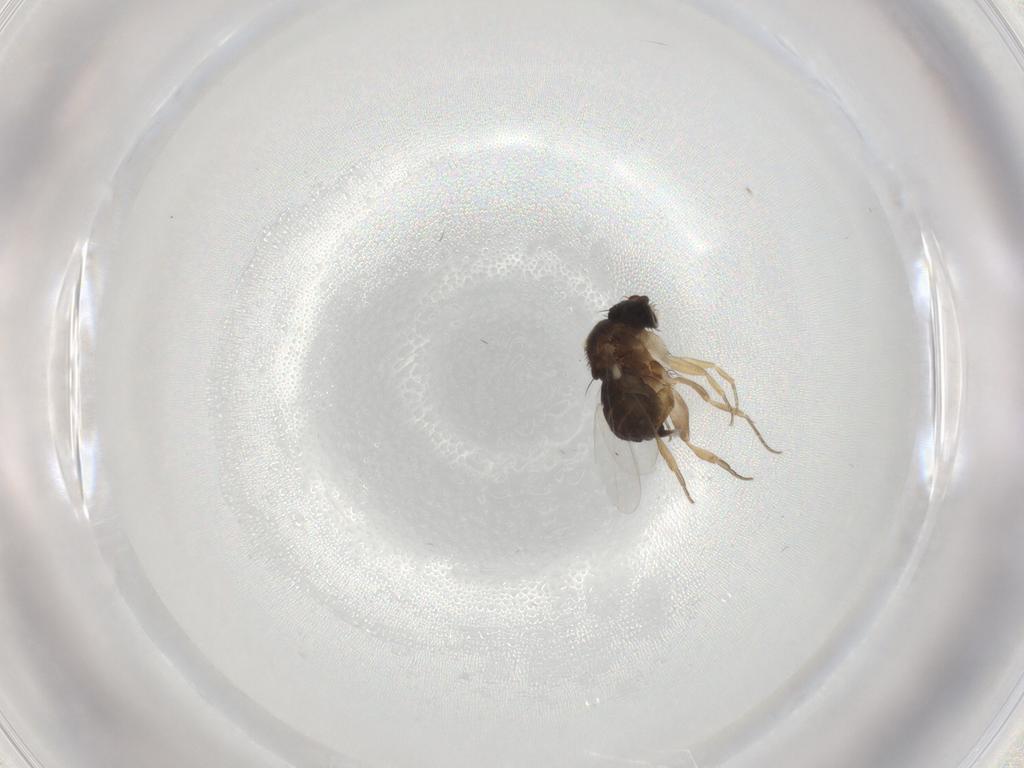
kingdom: Animalia
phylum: Arthropoda
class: Insecta
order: Diptera
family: Phoridae
